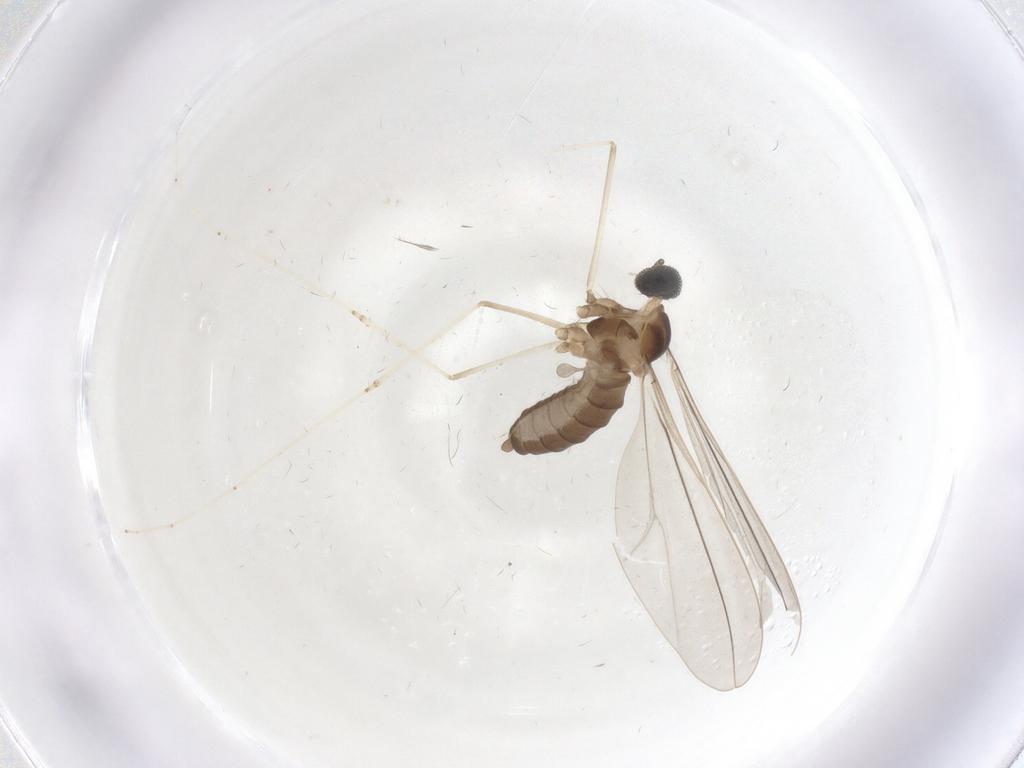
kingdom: Animalia
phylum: Arthropoda
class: Insecta
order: Diptera
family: Cecidomyiidae
